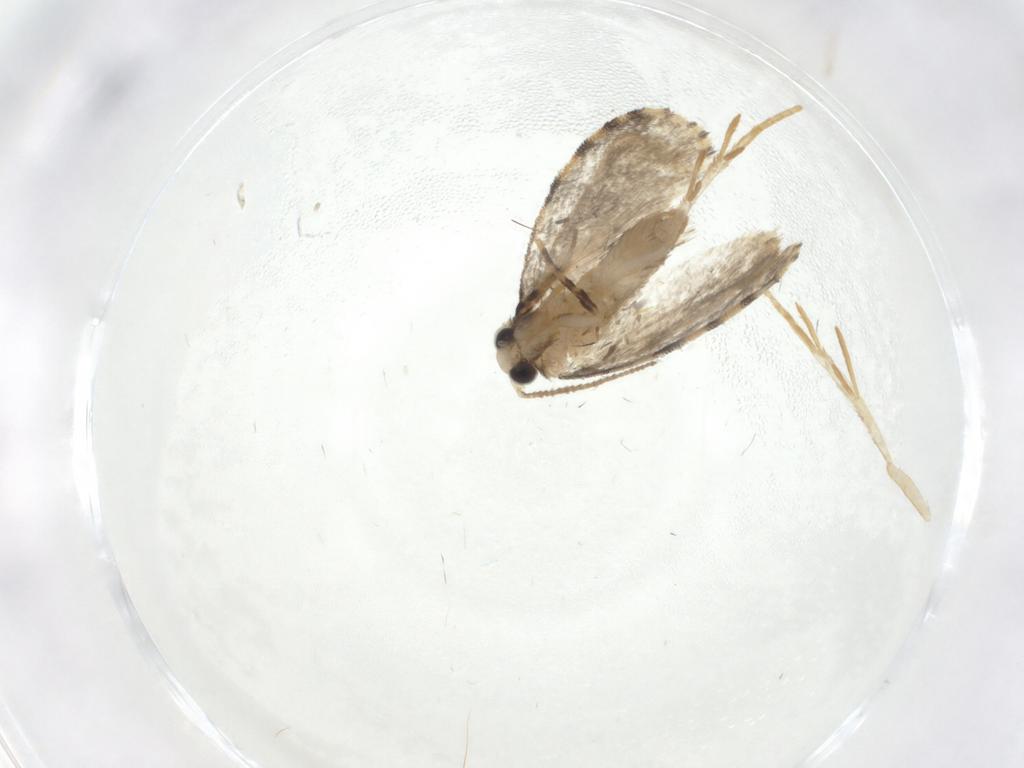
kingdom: Animalia
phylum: Arthropoda
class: Insecta
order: Lepidoptera
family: Psychidae
